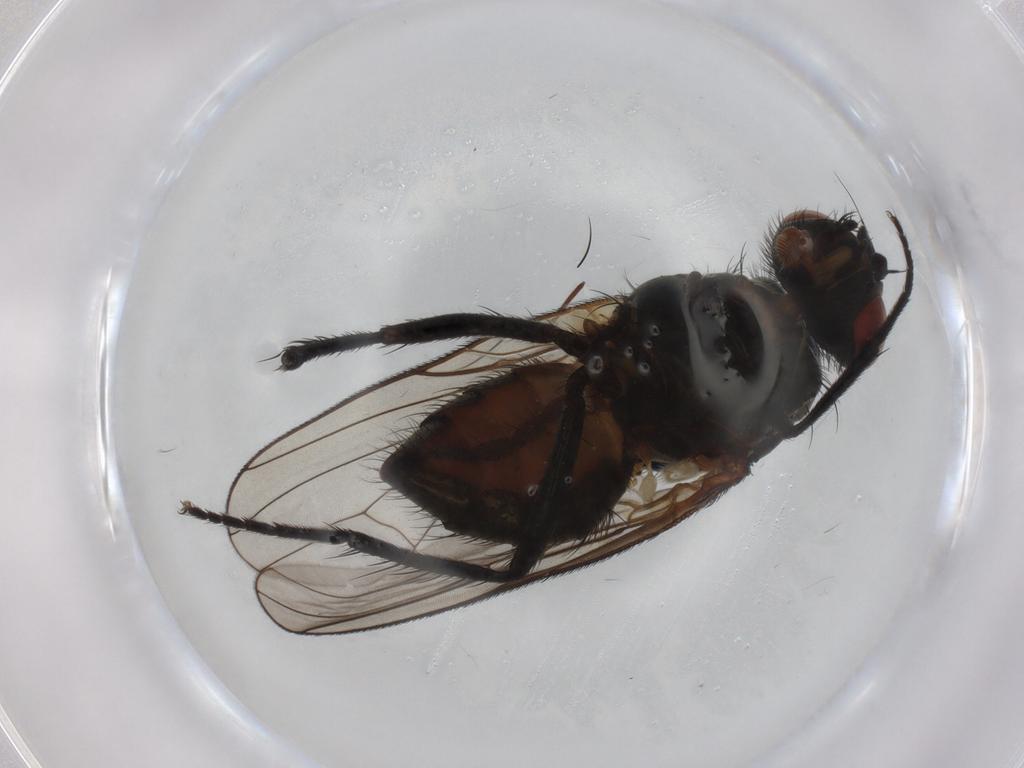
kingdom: Animalia
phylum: Arthropoda
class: Insecta
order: Diptera
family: Anthomyiidae
